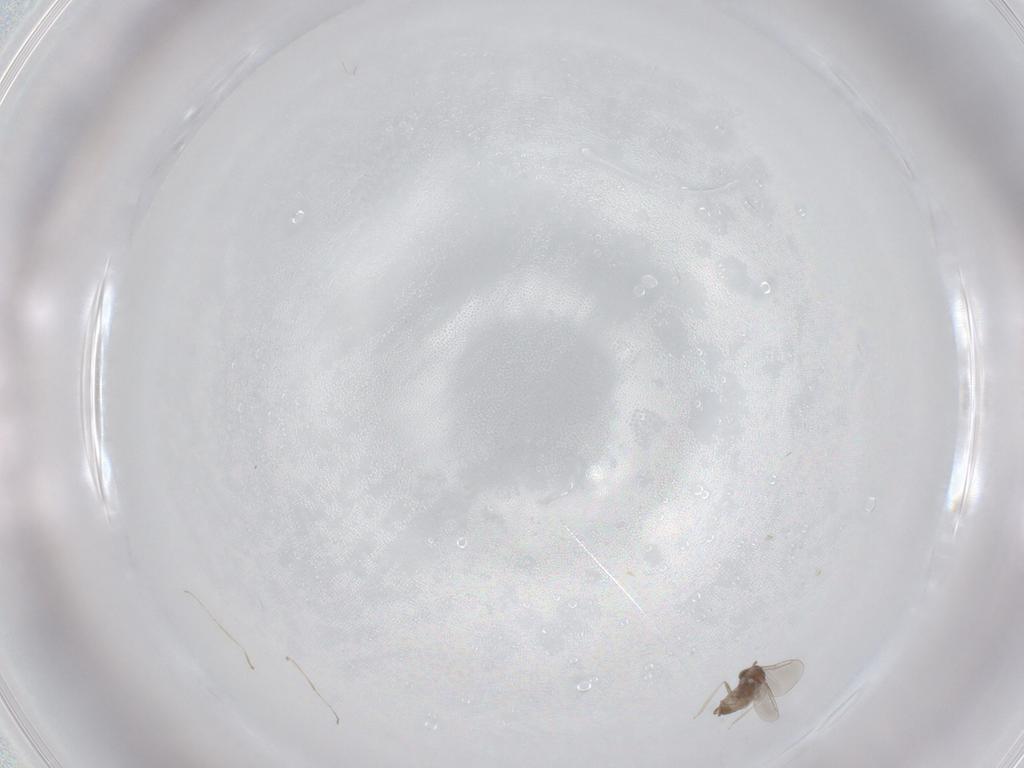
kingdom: Animalia
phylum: Arthropoda
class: Insecta
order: Diptera
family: Cecidomyiidae
